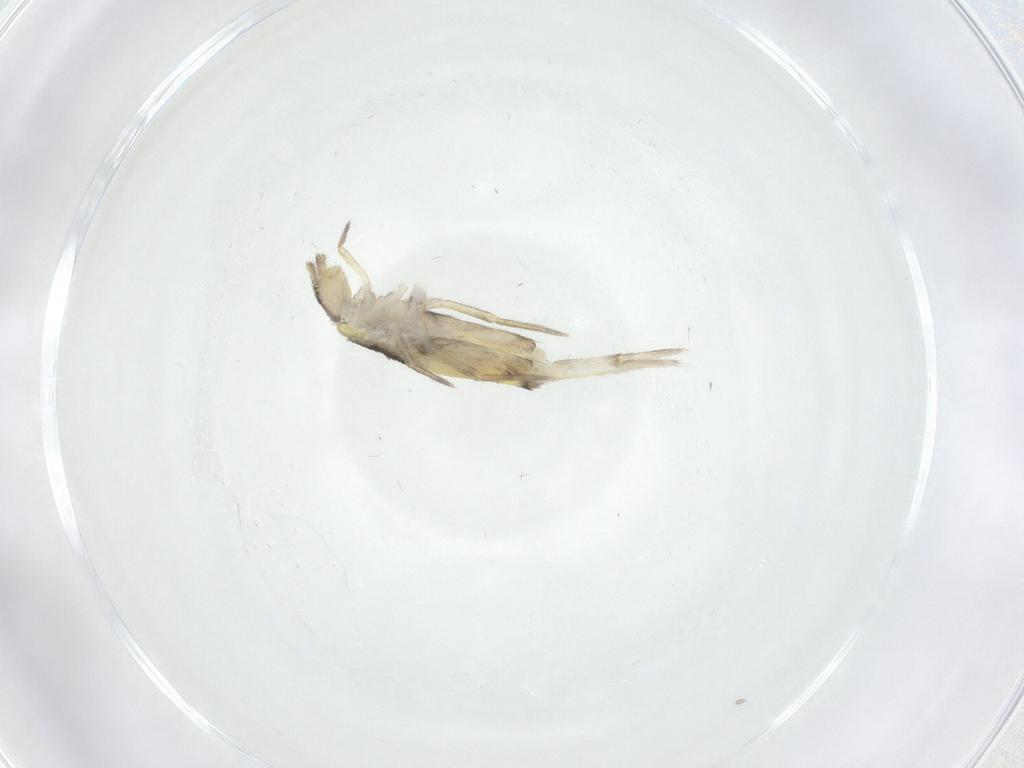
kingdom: Animalia
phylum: Arthropoda
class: Collembola
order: Entomobryomorpha
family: Entomobryidae
